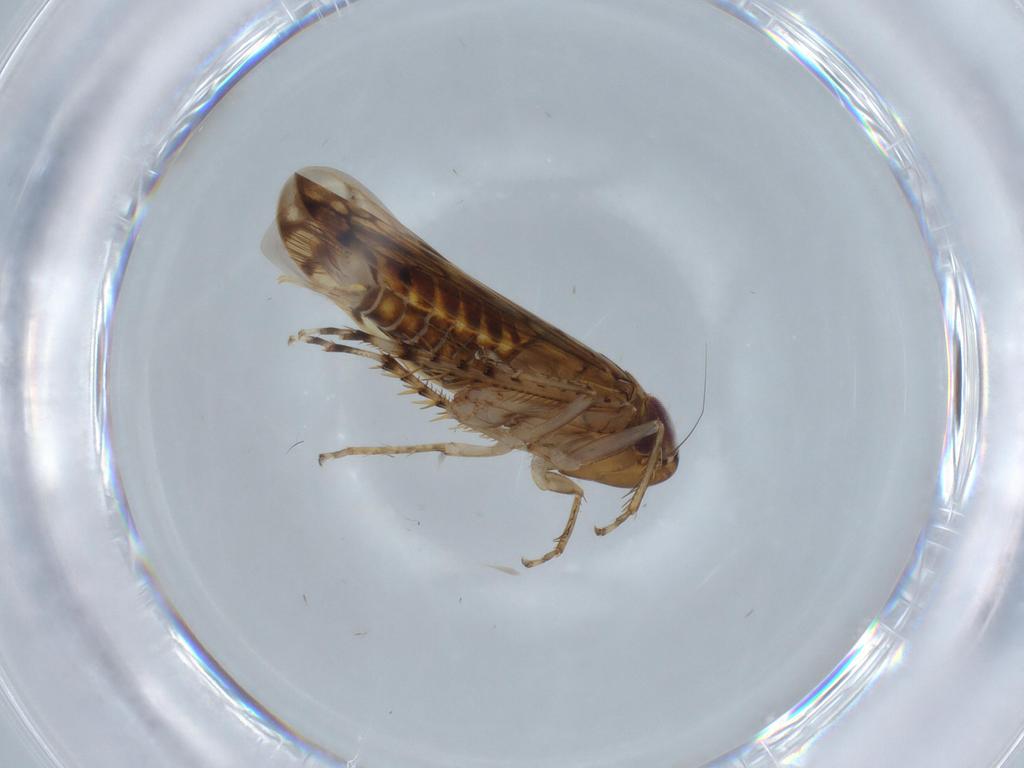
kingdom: Animalia
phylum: Arthropoda
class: Insecta
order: Hemiptera
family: Cicadellidae
